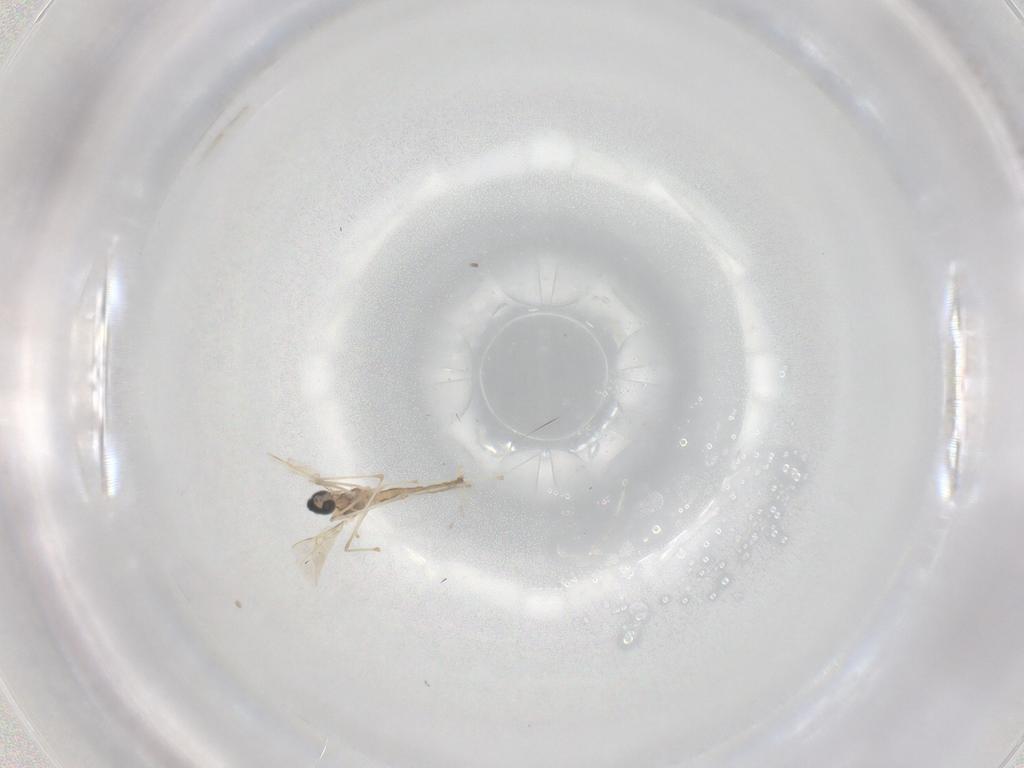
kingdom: Animalia
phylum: Arthropoda
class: Insecta
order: Diptera
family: Cecidomyiidae
